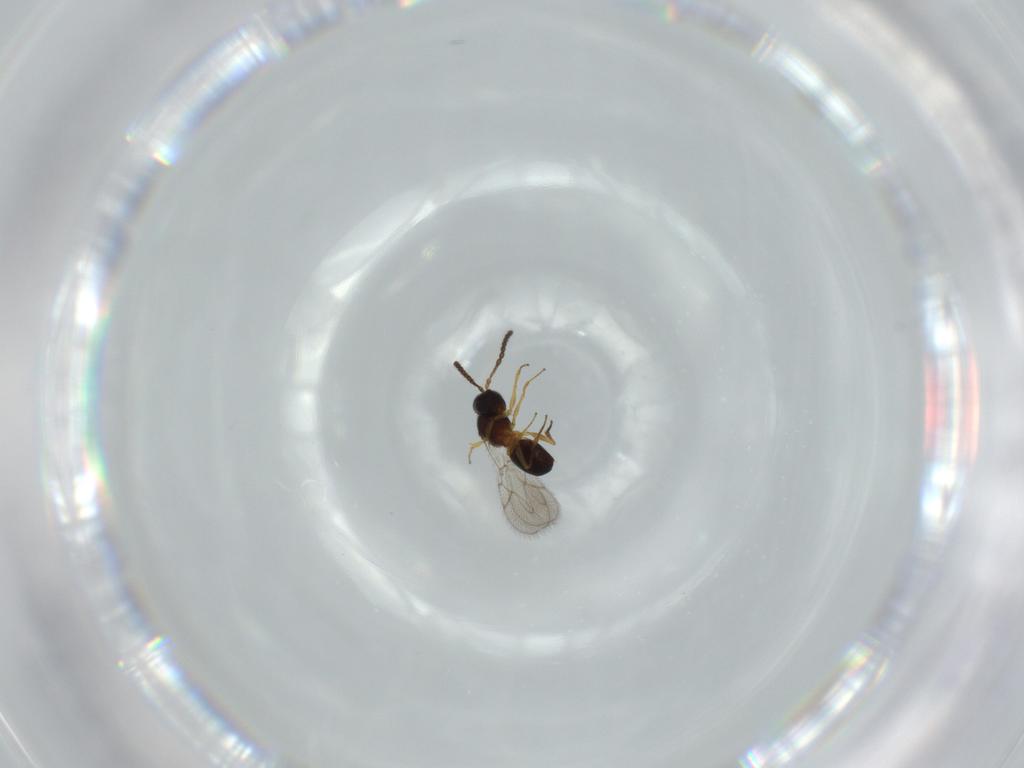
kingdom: Animalia
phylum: Arthropoda
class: Insecta
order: Hymenoptera
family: Figitidae
